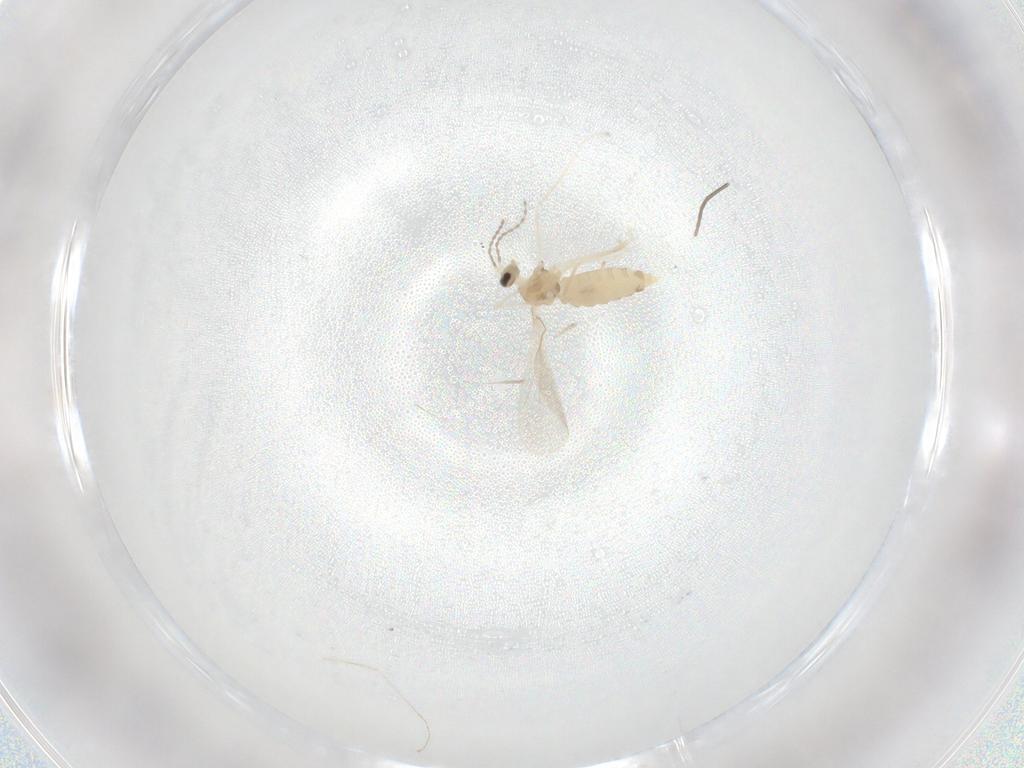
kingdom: Animalia
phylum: Arthropoda
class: Insecta
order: Diptera
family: Cecidomyiidae
